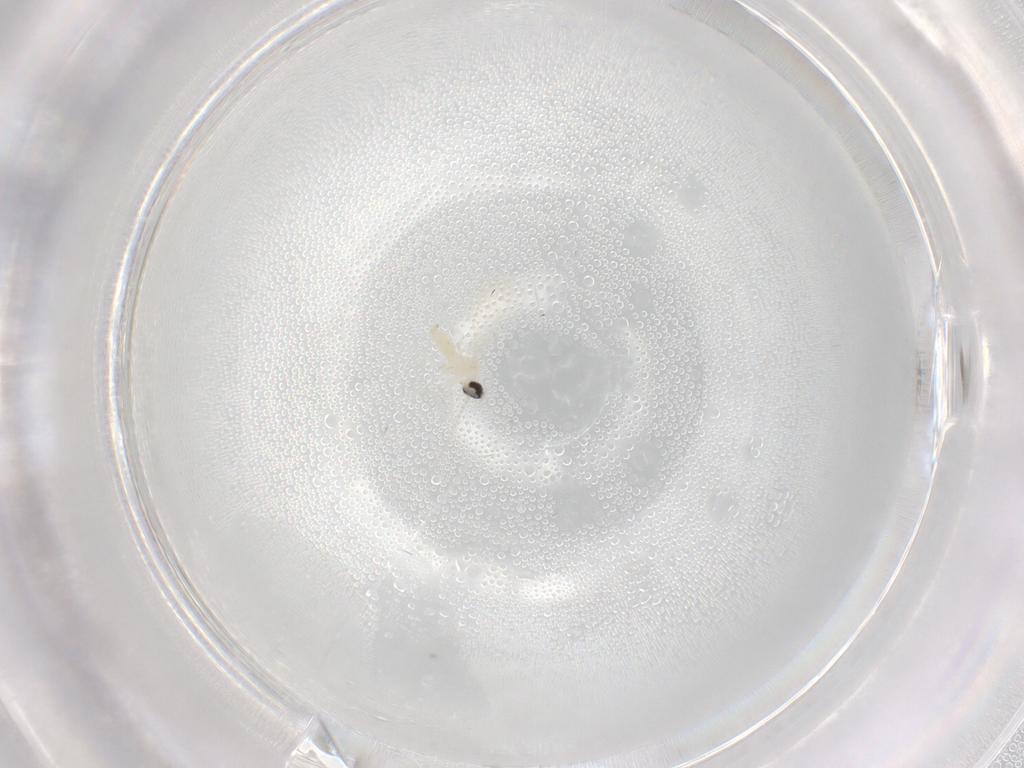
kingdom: Animalia
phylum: Arthropoda
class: Insecta
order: Diptera
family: Cecidomyiidae
